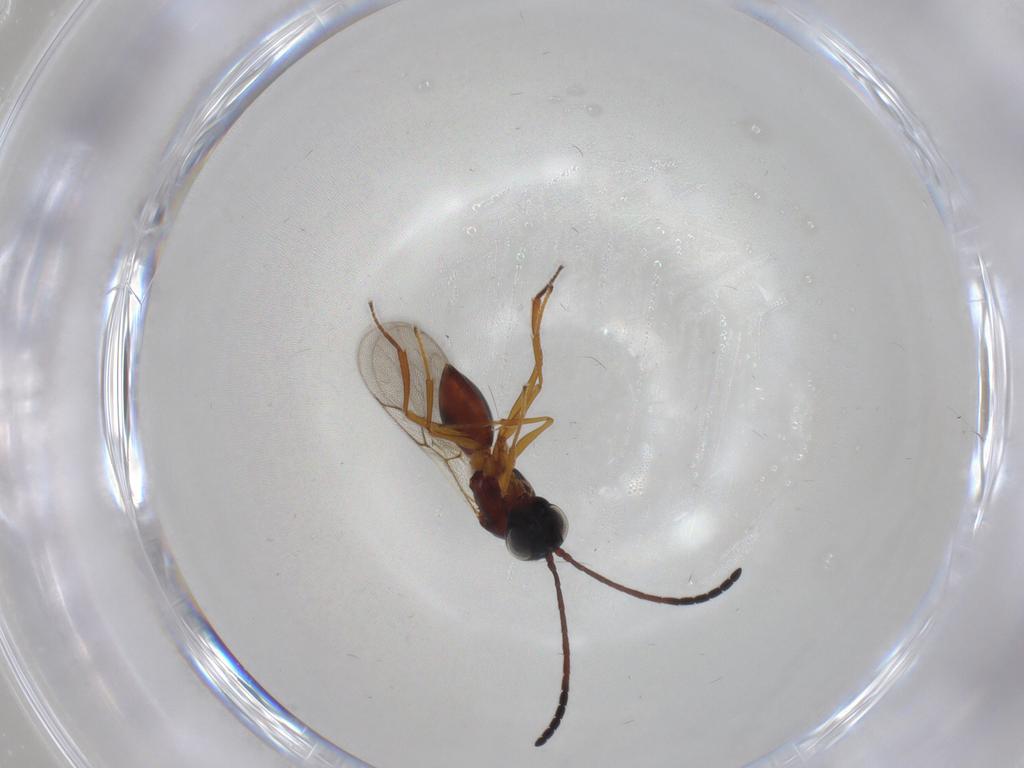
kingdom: Animalia
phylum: Arthropoda
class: Insecta
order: Hymenoptera
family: Figitidae
